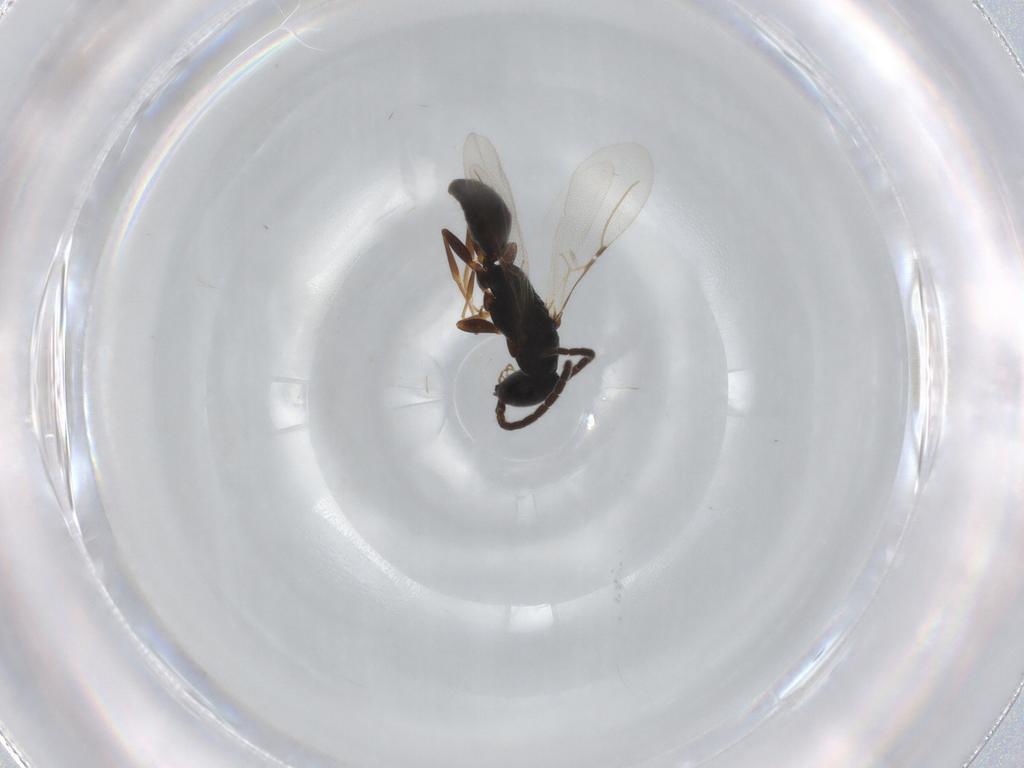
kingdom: Animalia
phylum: Arthropoda
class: Insecta
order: Hymenoptera
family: Bethylidae
